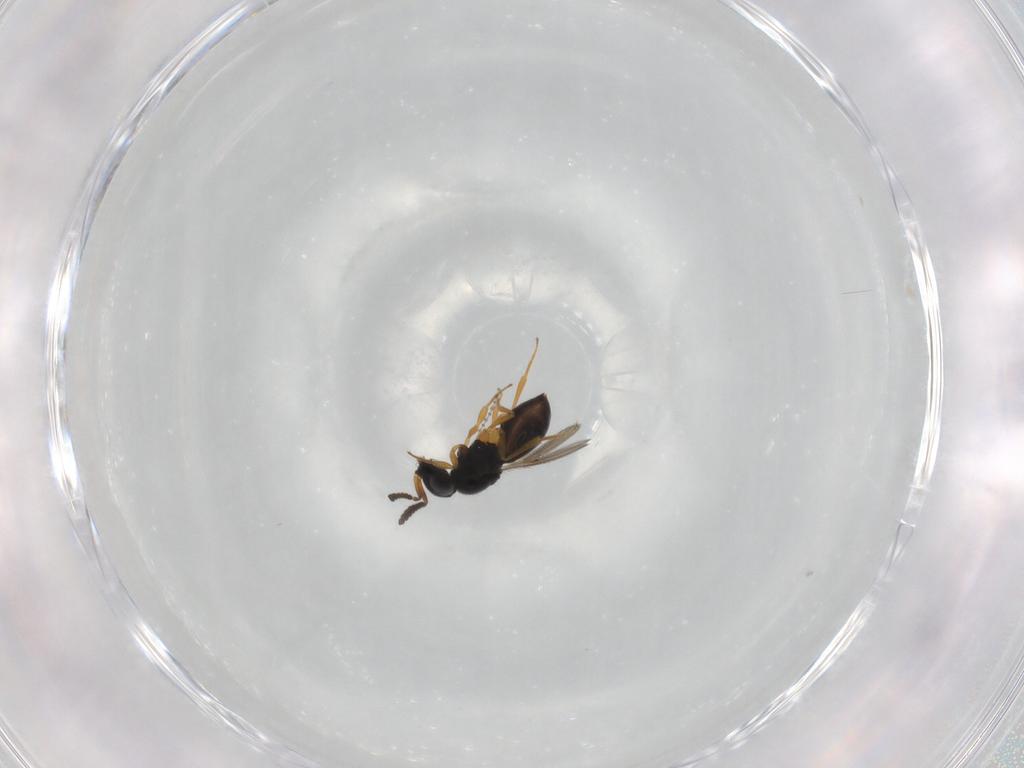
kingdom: Animalia
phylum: Arthropoda
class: Insecta
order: Hymenoptera
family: Scelionidae
